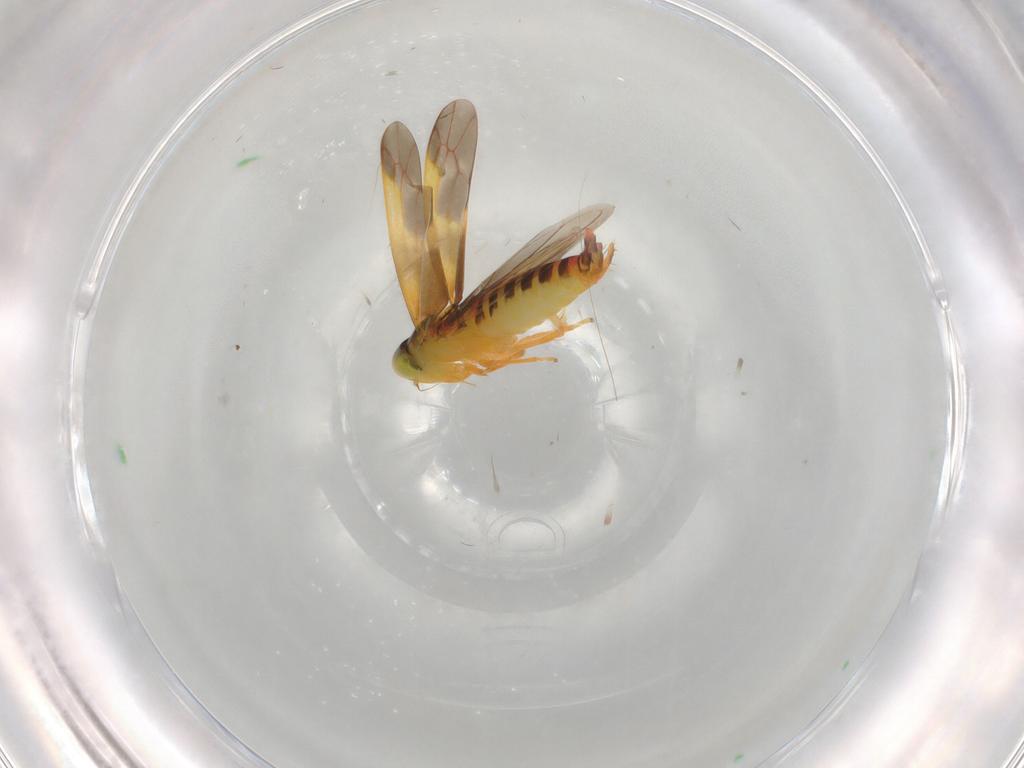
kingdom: Animalia
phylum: Arthropoda
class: Insecta
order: Hemiptera
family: Cicadellidae
